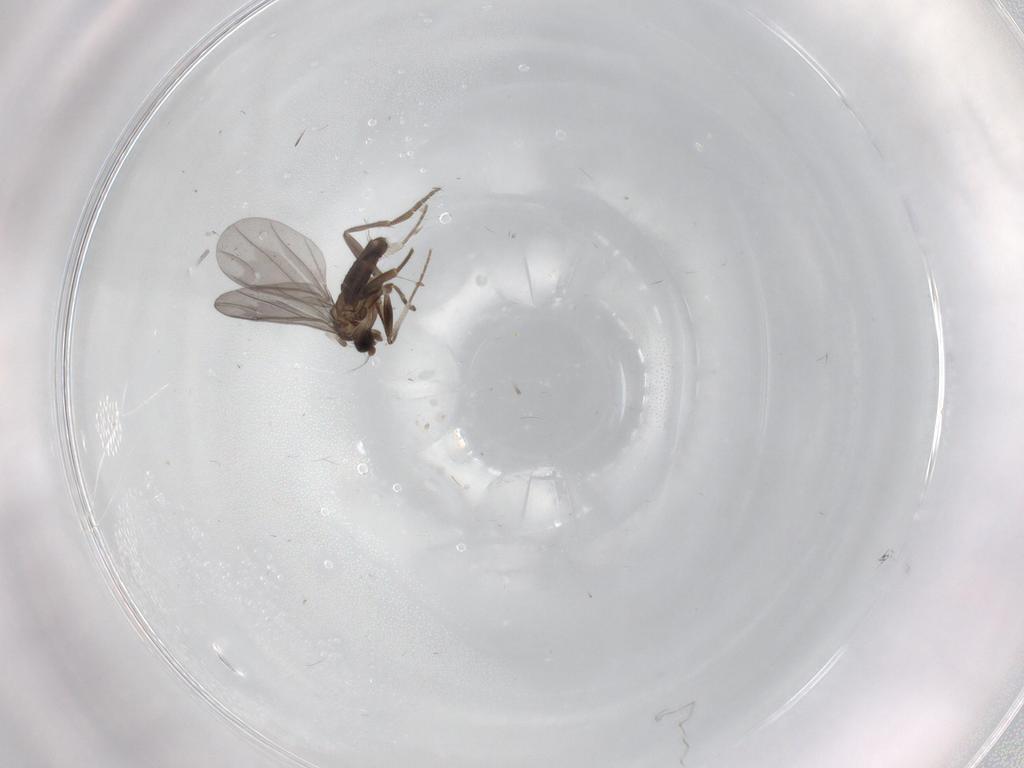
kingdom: Animalia
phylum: Arthropoda
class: Insecta
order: Diptera
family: Phoridae
